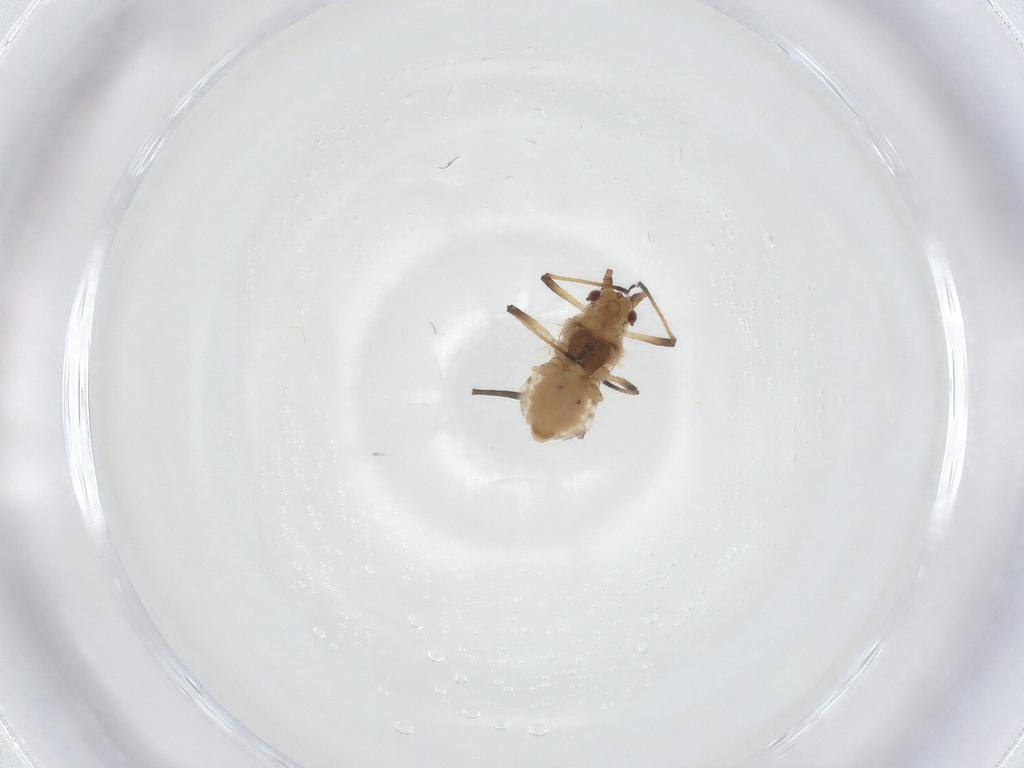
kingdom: Animalia
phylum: Arthropoda
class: Insecta
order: Hemiptera
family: Aphididae
